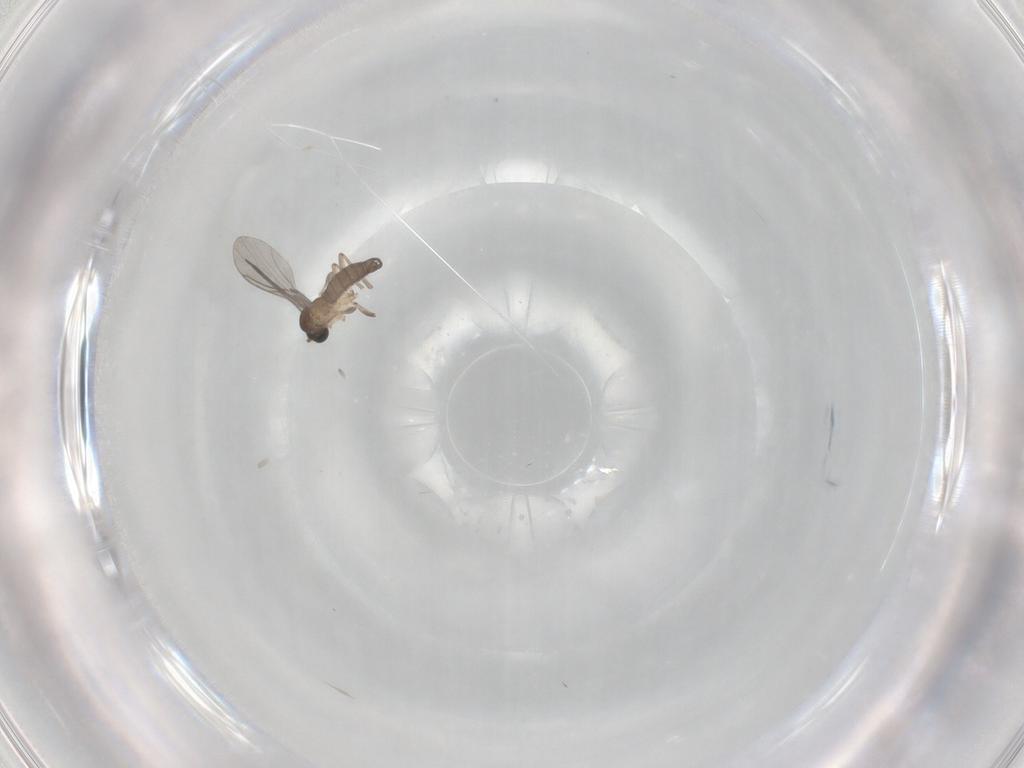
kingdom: Animalia
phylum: Arthropoda
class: Insecta
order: Diptera
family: Sciaridae
